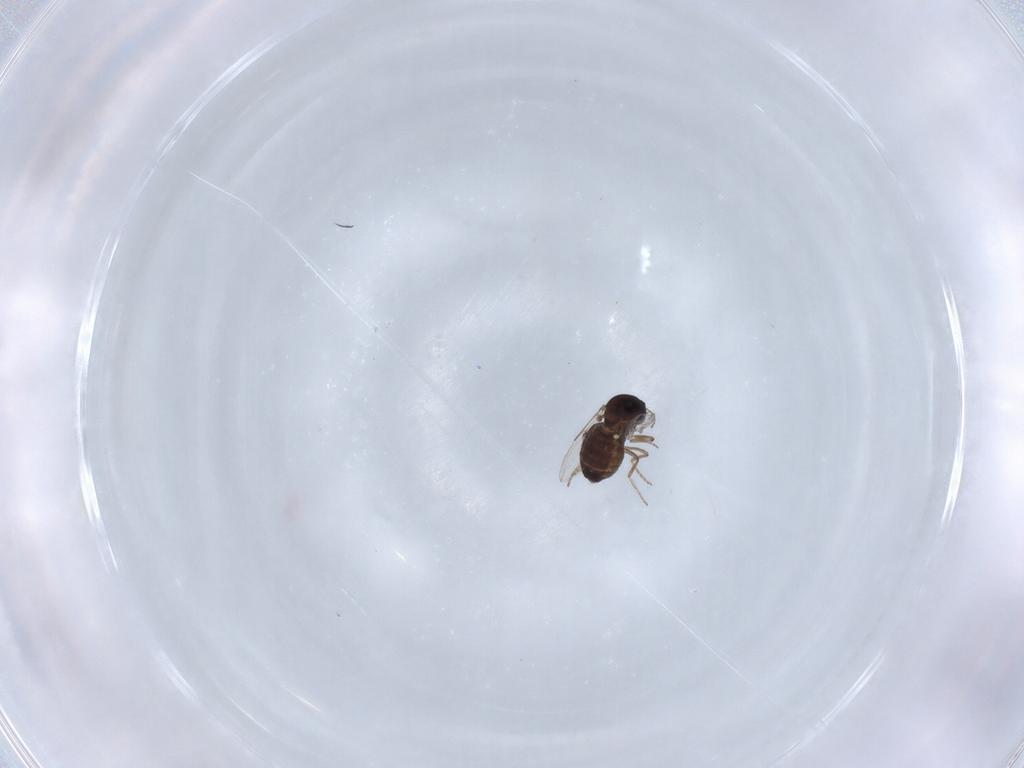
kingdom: Animalia
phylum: Arthropoda
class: Insecta
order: Diptera
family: Ceratopogonidae
